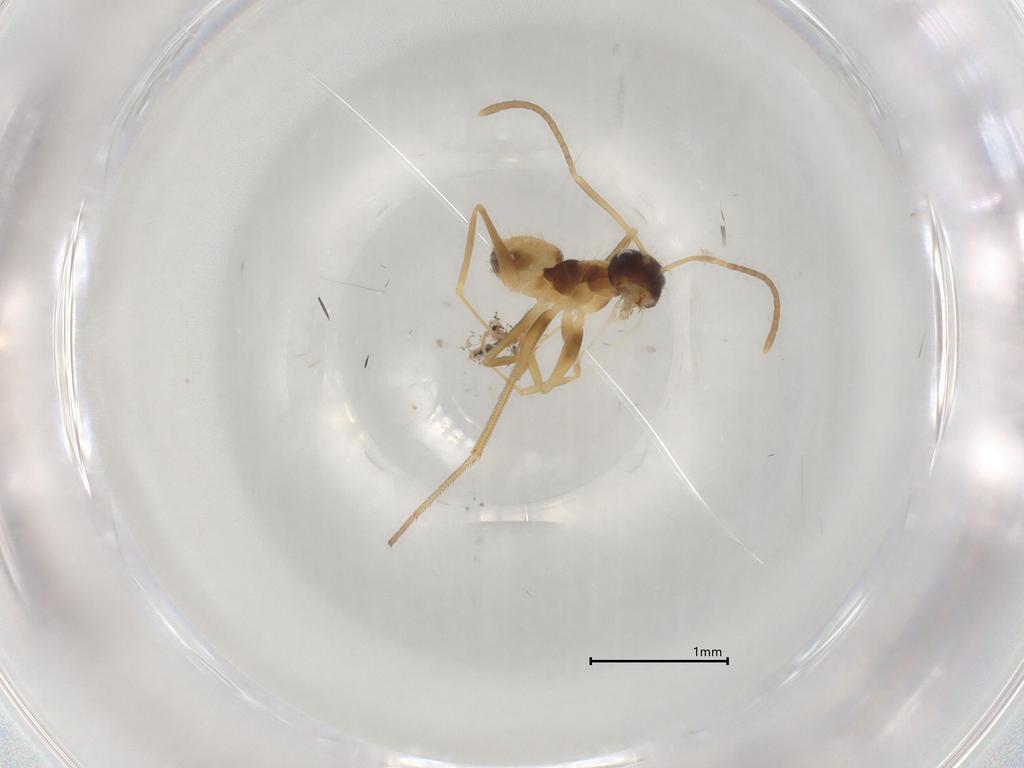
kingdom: Animalia
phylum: Arthropoda
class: Insecta
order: Hymenoptera
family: Formicidae
